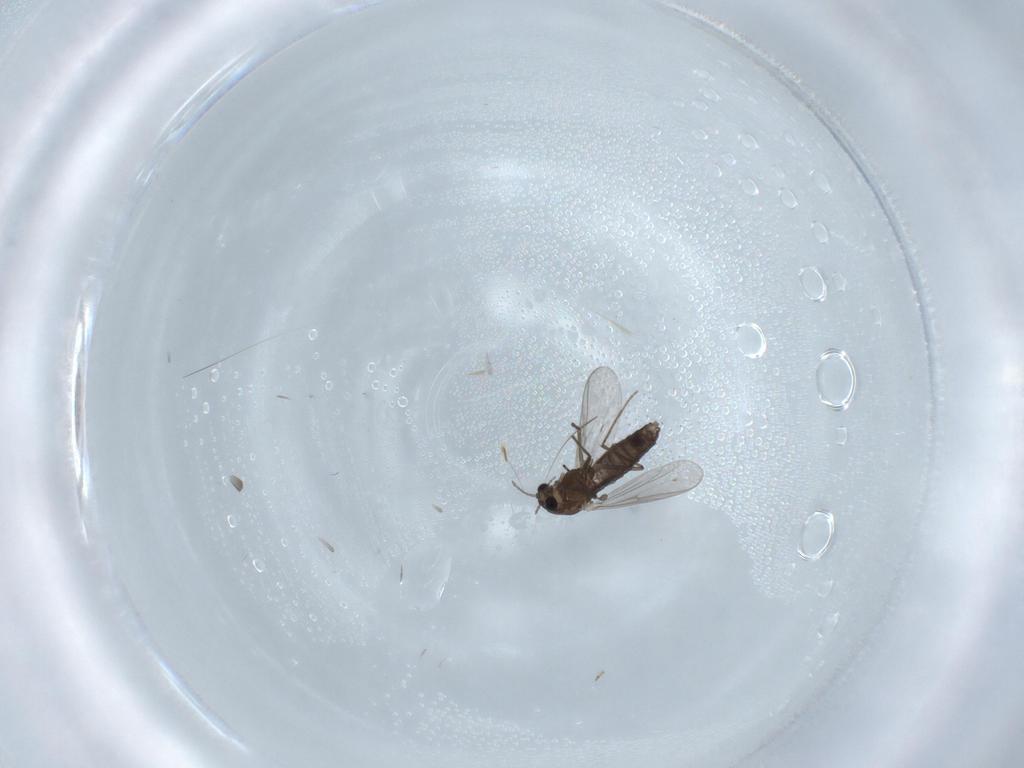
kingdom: Animalia
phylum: Arthropoda
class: Insecta
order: Diptera
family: Chironomidae
